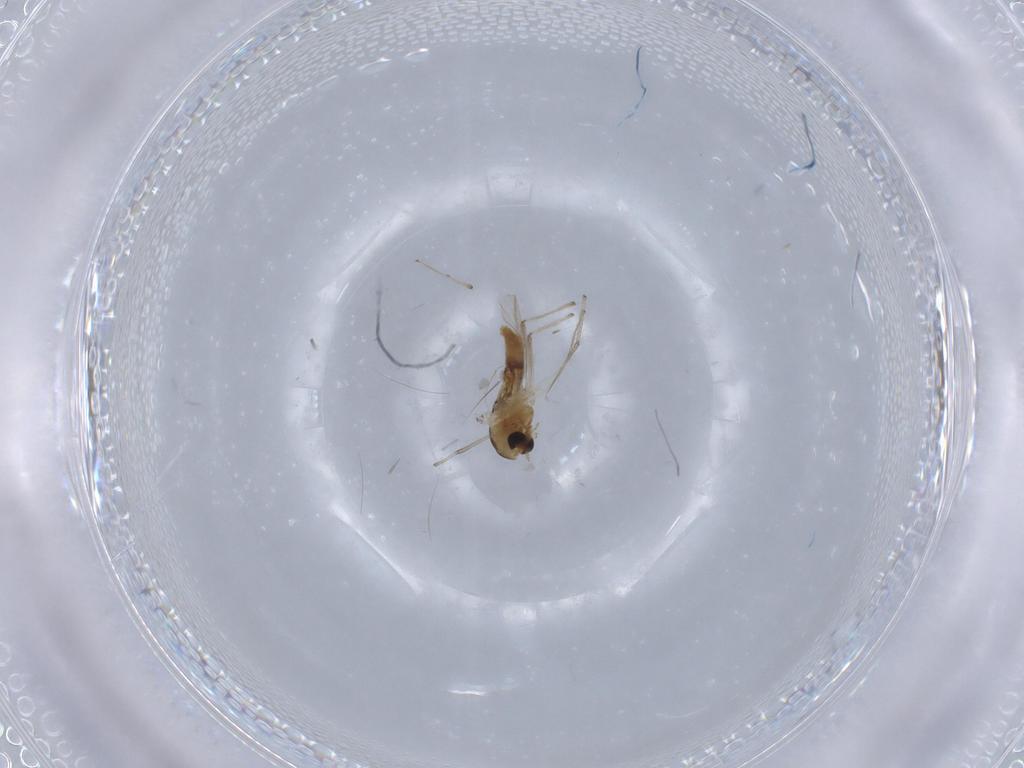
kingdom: Animalia
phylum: Arthropoda
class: Insecta
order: Diptera
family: Chironomidae
